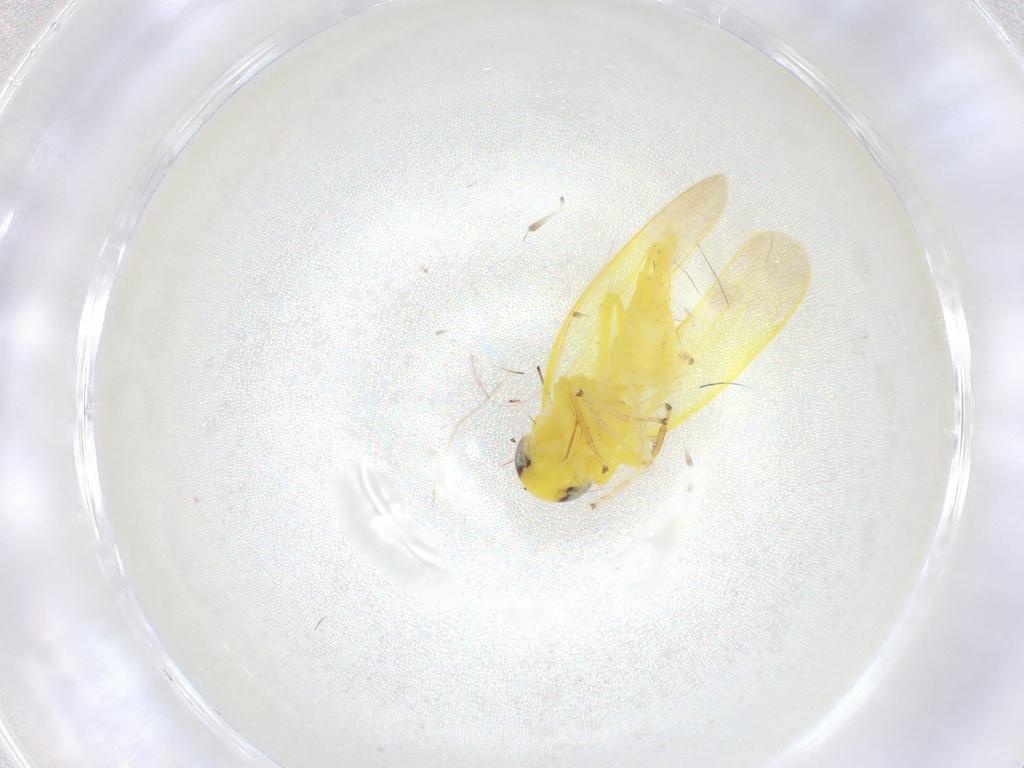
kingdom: Animalia
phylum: Arthropoda
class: Insecta
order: Hemiptera
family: Cicadellidae
